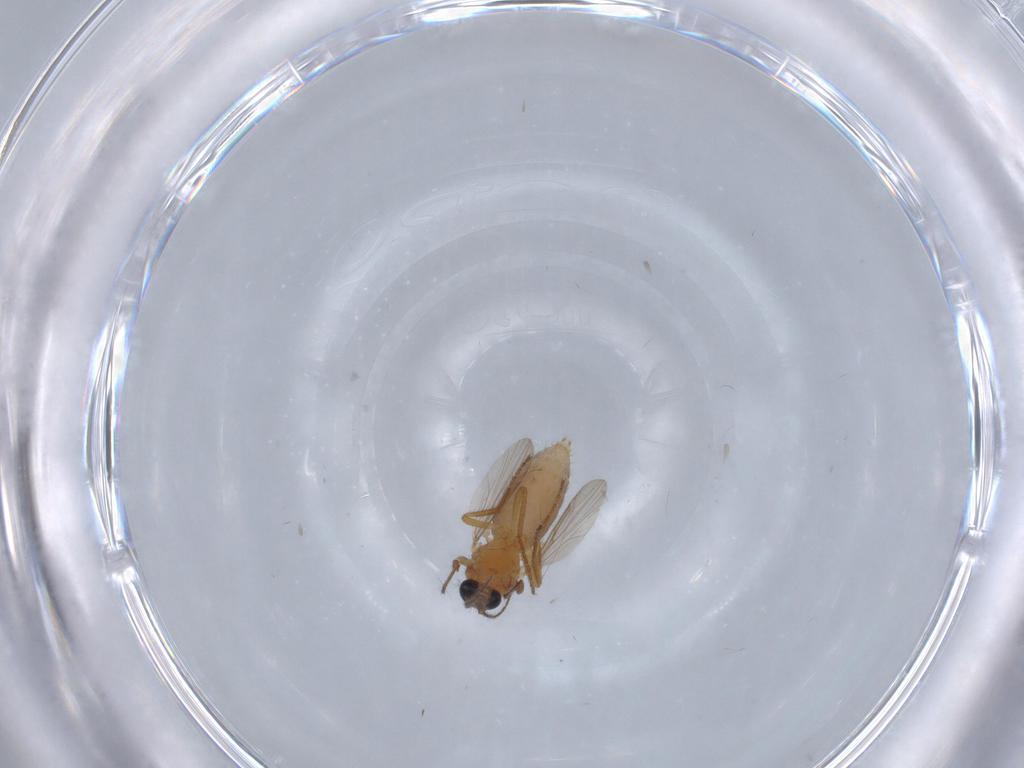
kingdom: Animalia
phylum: Arthropoda
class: Insecta
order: Diptera
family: Ceratopogonidae
